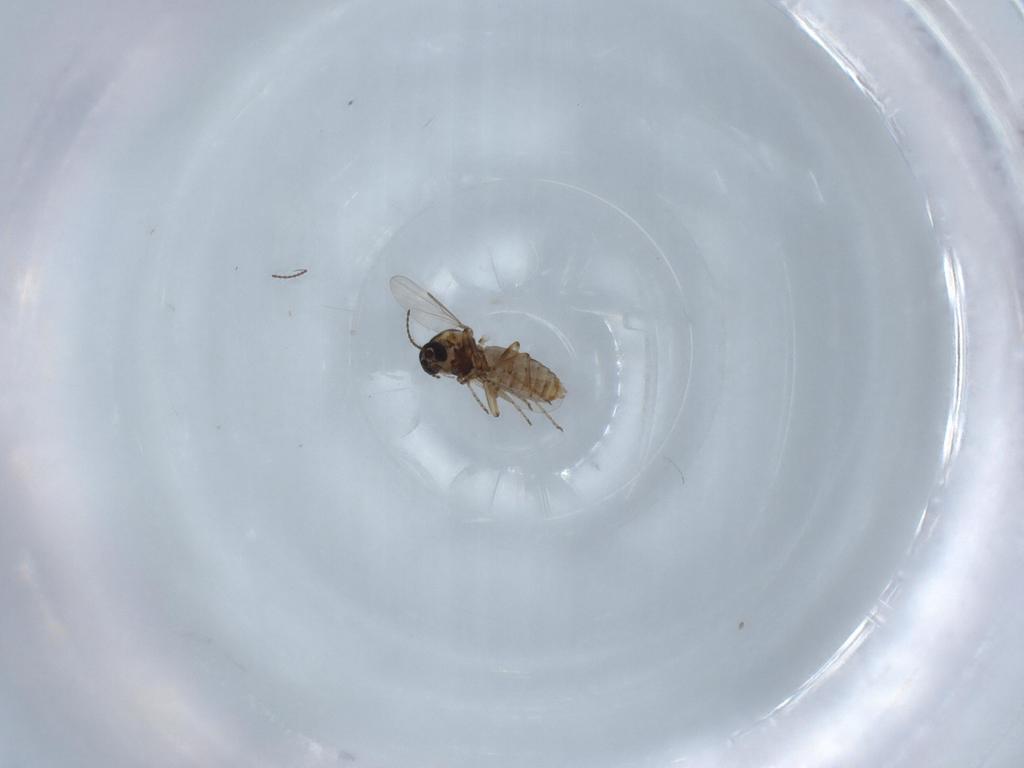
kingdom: Animalia
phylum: Arthropoda
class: Insecta
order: Diptera
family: Ceratopogonidae
